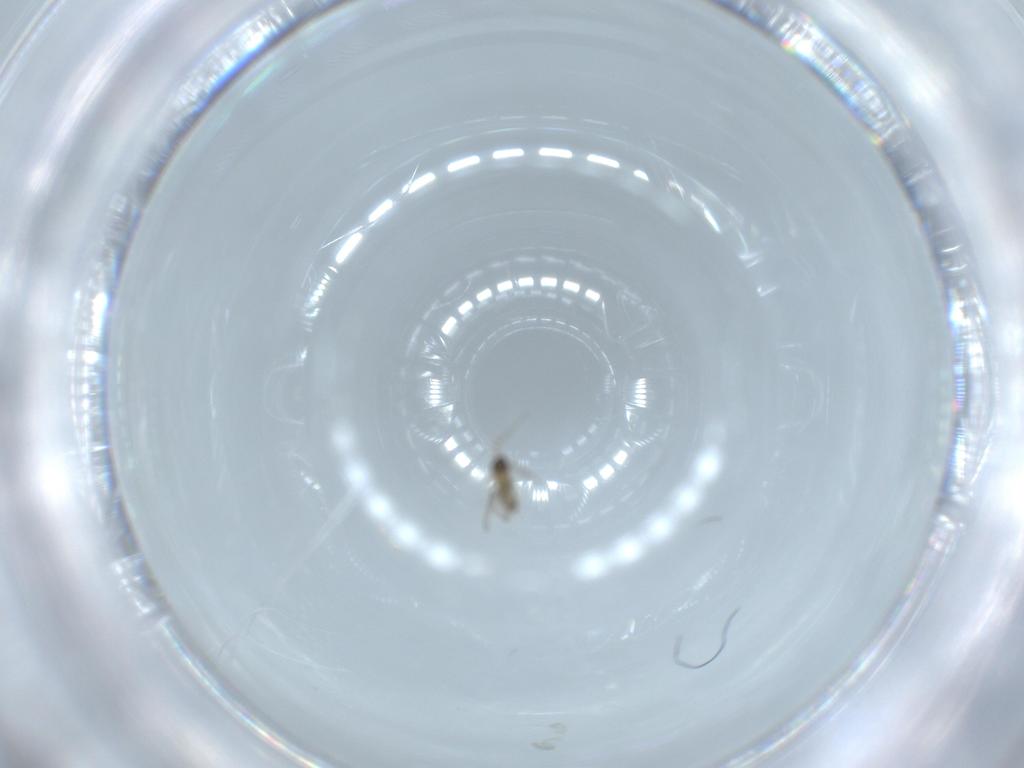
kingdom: Animalia
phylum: Arthropoda
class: Insecta
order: Diptera
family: Cecidomyiidae
